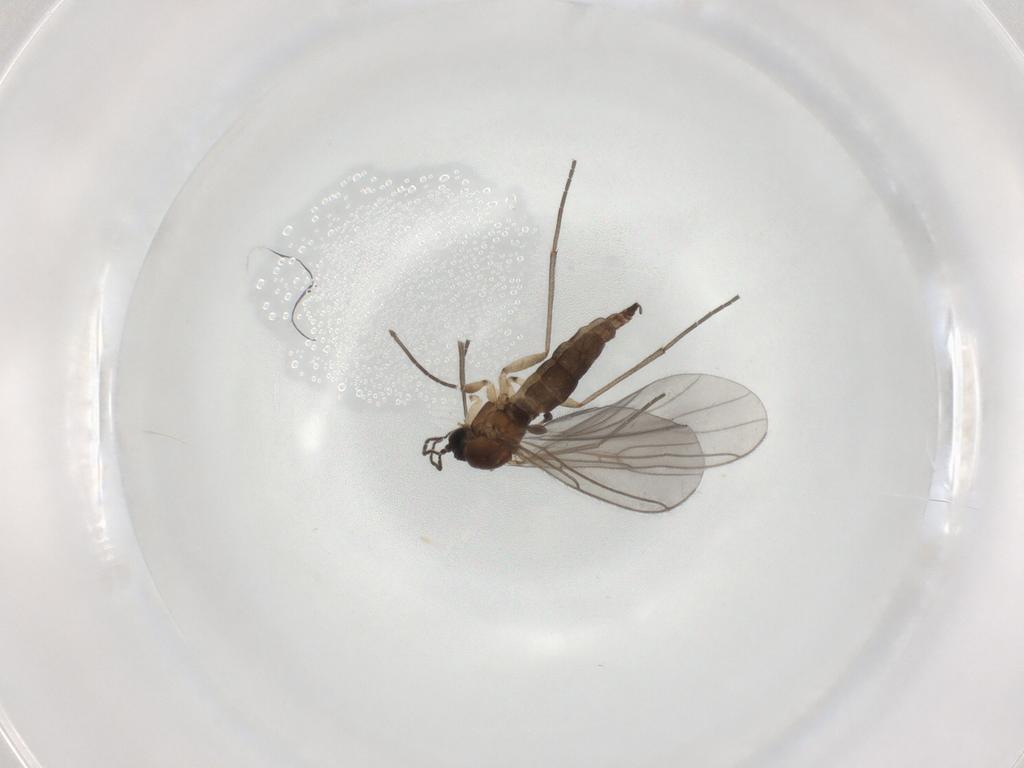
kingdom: Animalia
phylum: Arthropoda
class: Insecta
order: Diptera
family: Sciaridae
